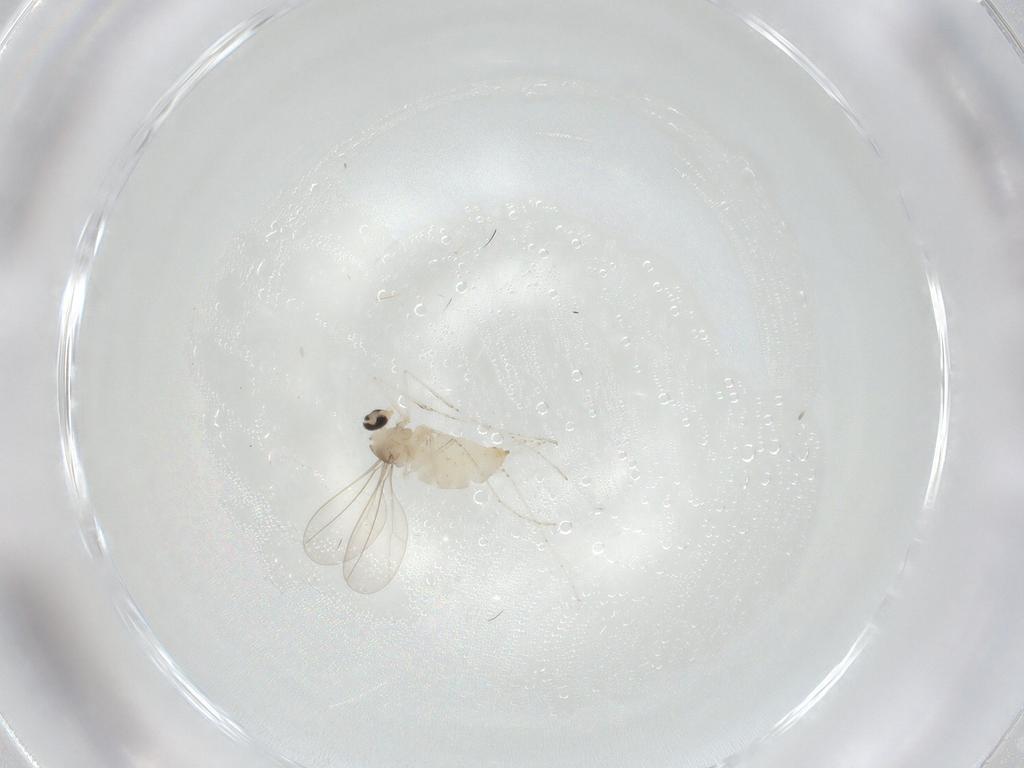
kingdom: Animalia
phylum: Arthropoda
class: Insecta
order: Diptera
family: Cecidomyiidae
